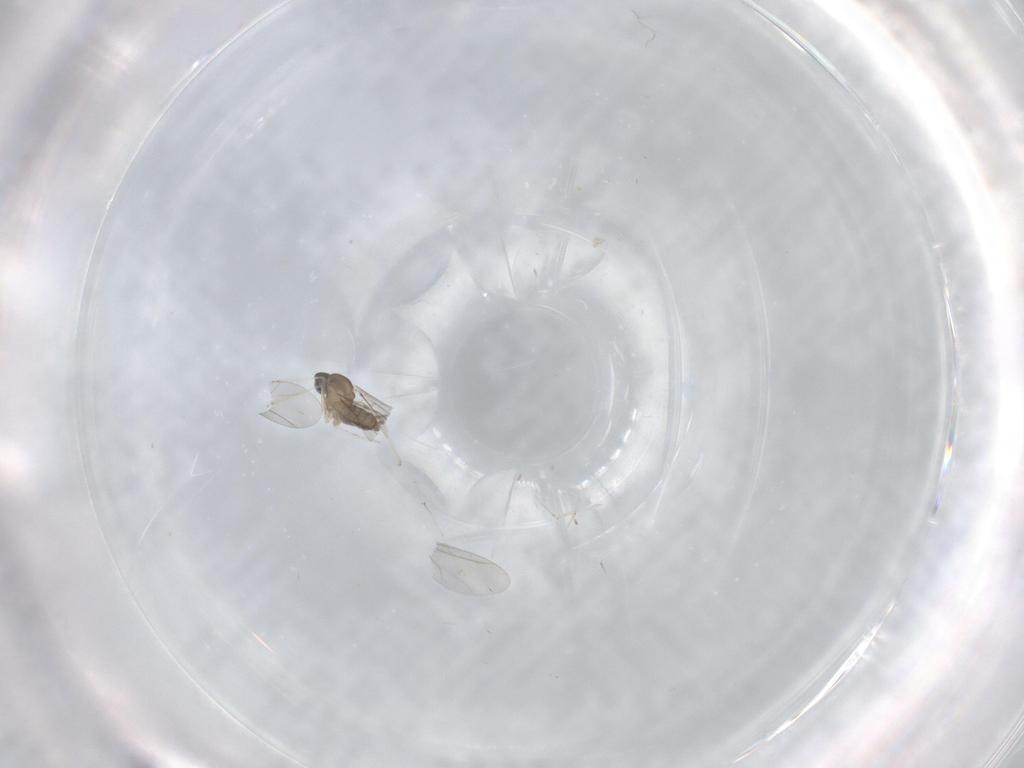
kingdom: Animalia
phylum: Arthropoda
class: Insecta
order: Diptera
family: Cecidomyiidae
